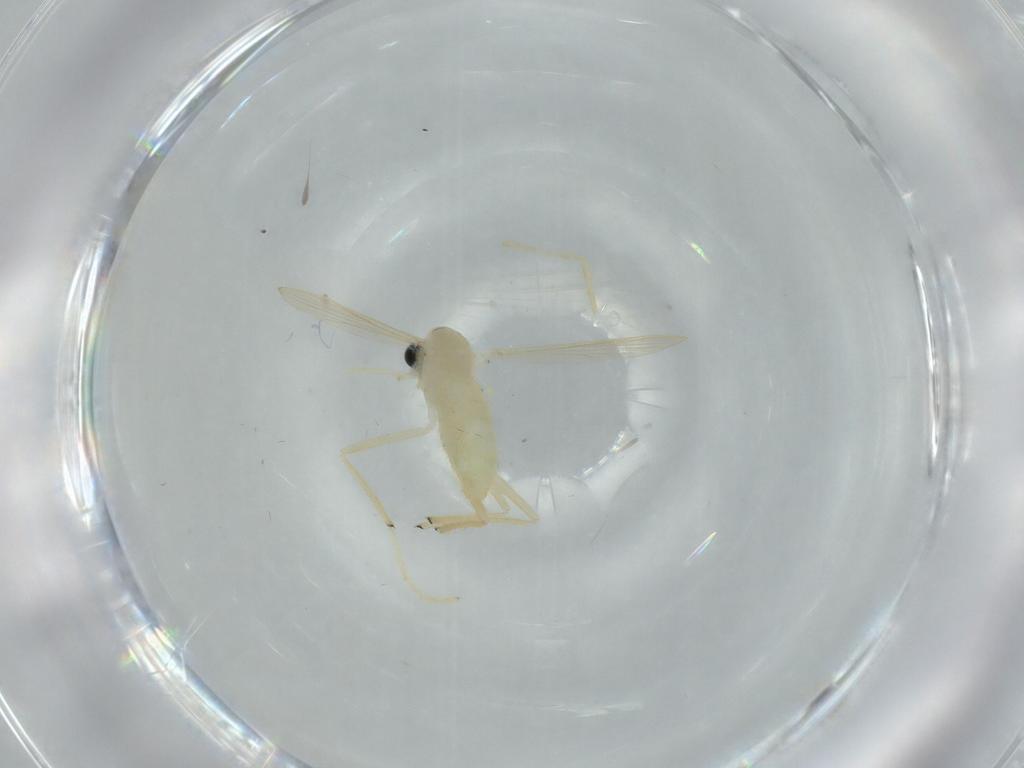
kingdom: Animalia
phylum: Arthropoda
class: Insecta
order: Diptera
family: Chironomidae
